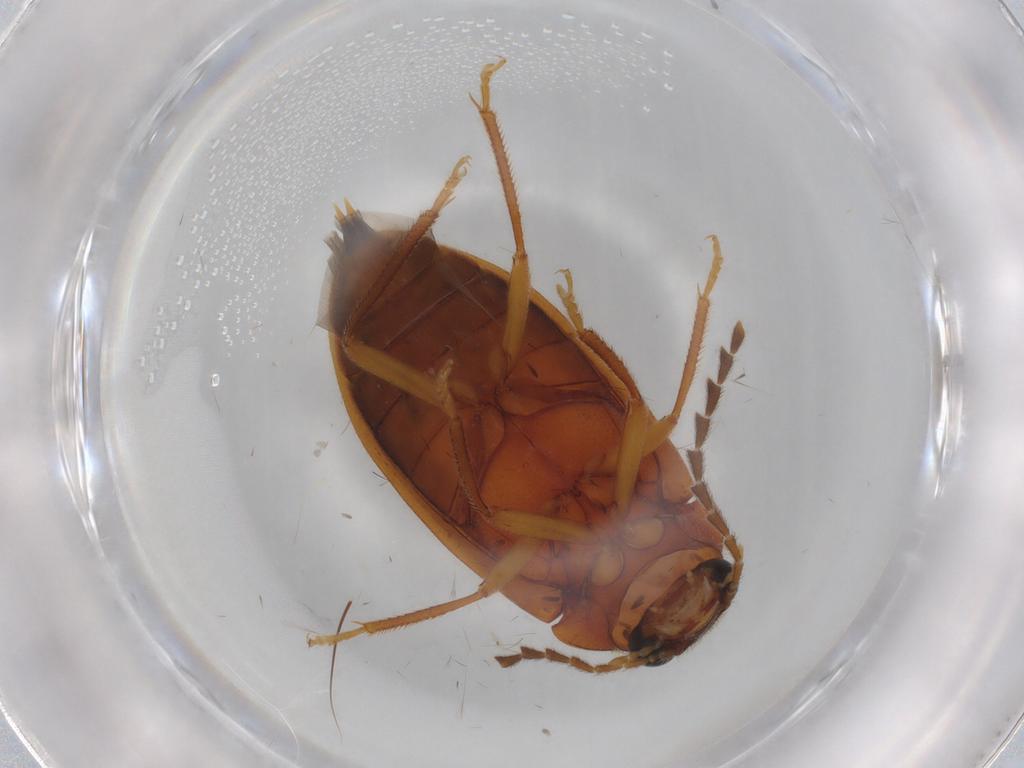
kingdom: Animalia
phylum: Arthropoda
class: Insecta
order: Coleoptera
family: Ptilodactylidae
